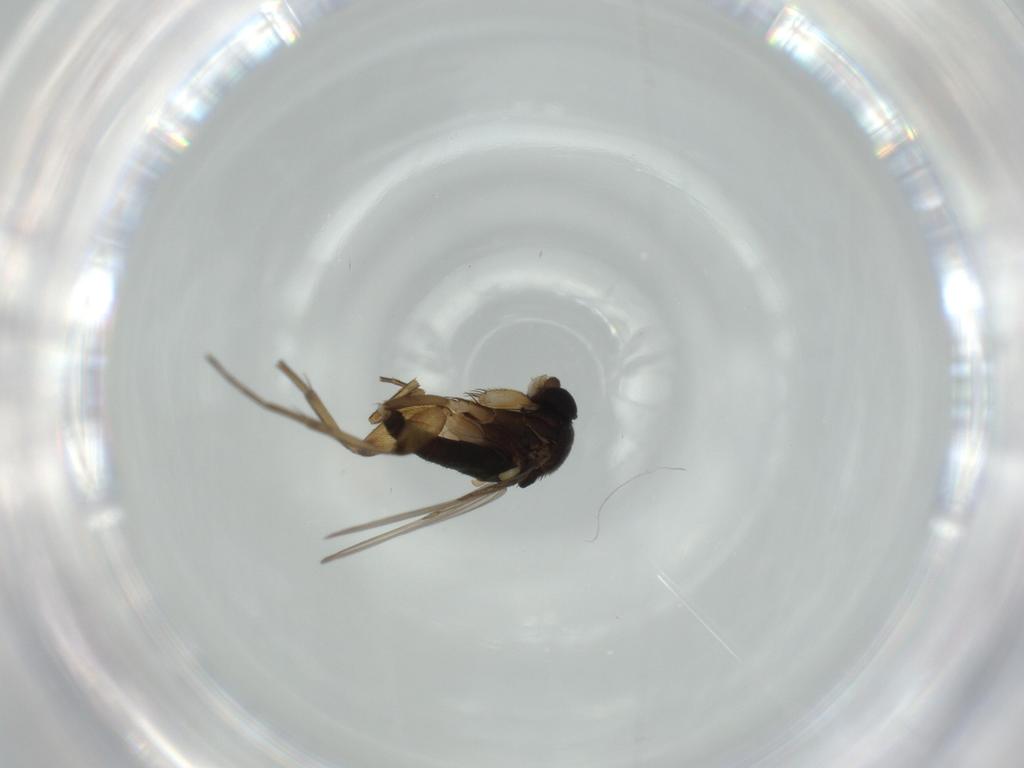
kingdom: Animalia
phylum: Arthropoda
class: Insecta
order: Diptera
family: Phoridae
